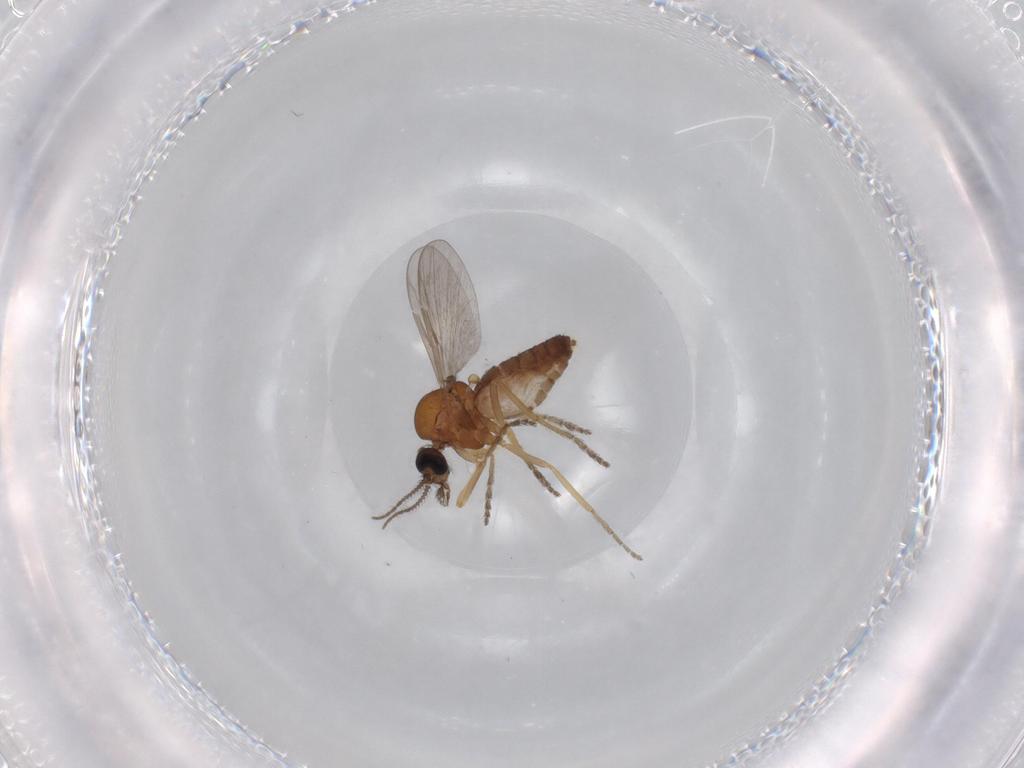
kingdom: Animalia
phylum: Arthropoda
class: Insecta
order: Diptera
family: Ceratopogonidae
